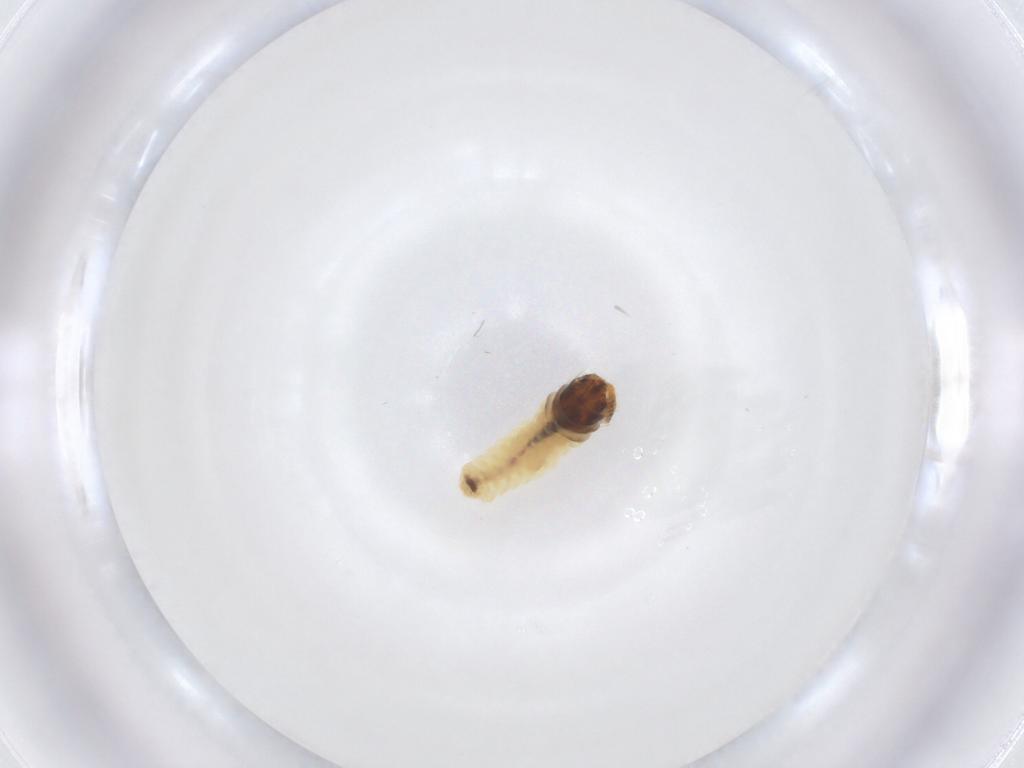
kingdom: Animalia
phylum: Arthropoda
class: Insecta
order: Lepidoptera
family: Psychidae
